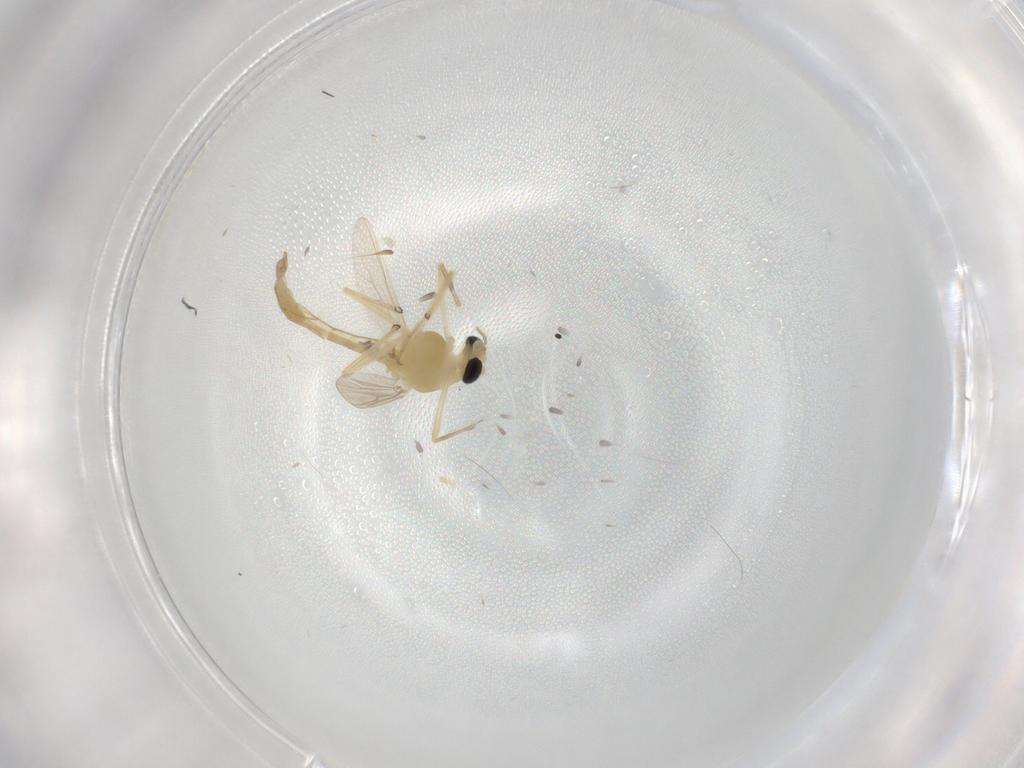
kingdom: Animalia
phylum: Arthropoda
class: Insecta
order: Diptera
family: Chironomidae
